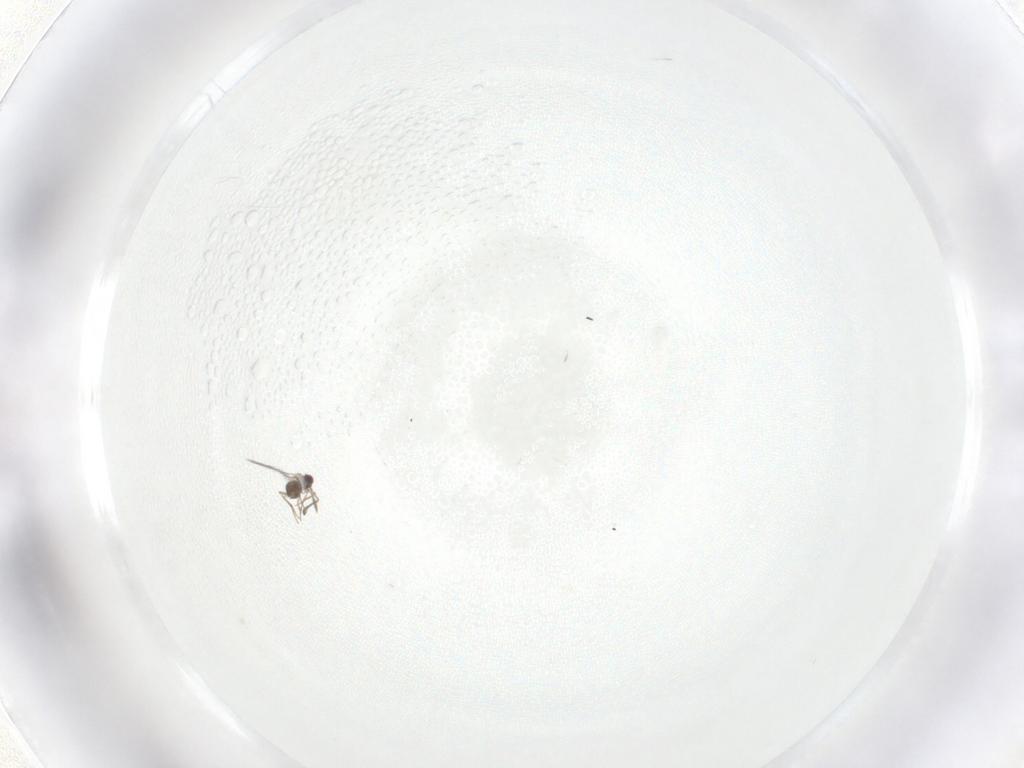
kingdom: Animalia
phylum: Arthropoda
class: Insecta
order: Hymenoptera
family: Mymaridae
